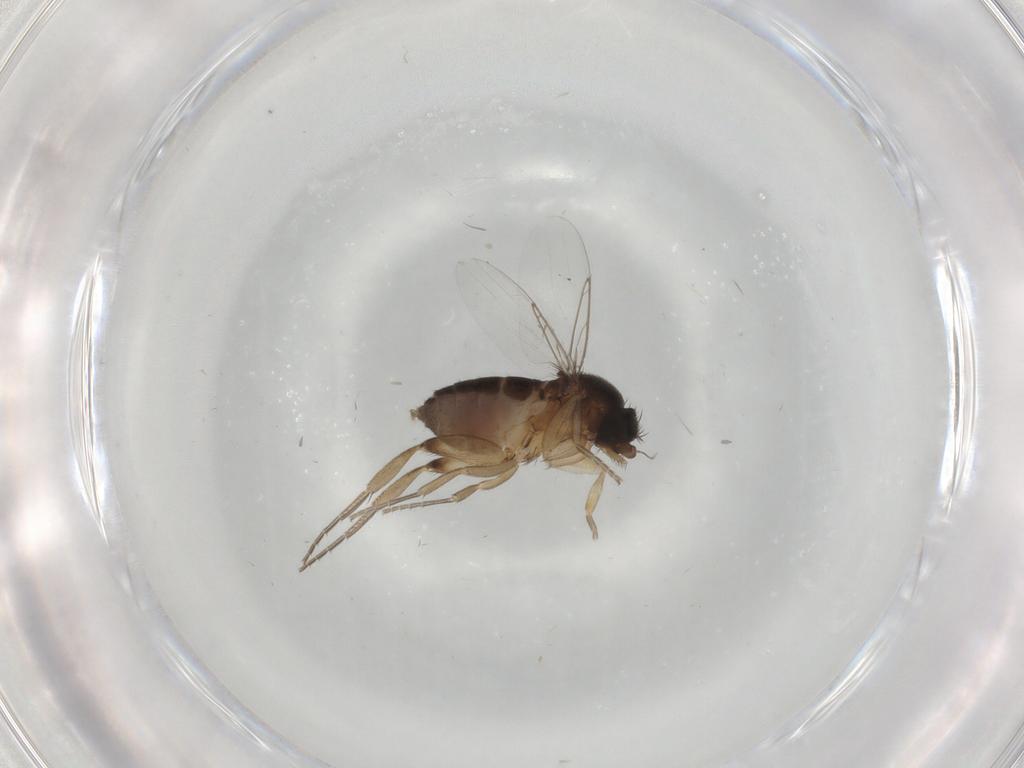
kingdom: Animalia
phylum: Arthropoda
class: Insecta
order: Diptera
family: Phoridae
